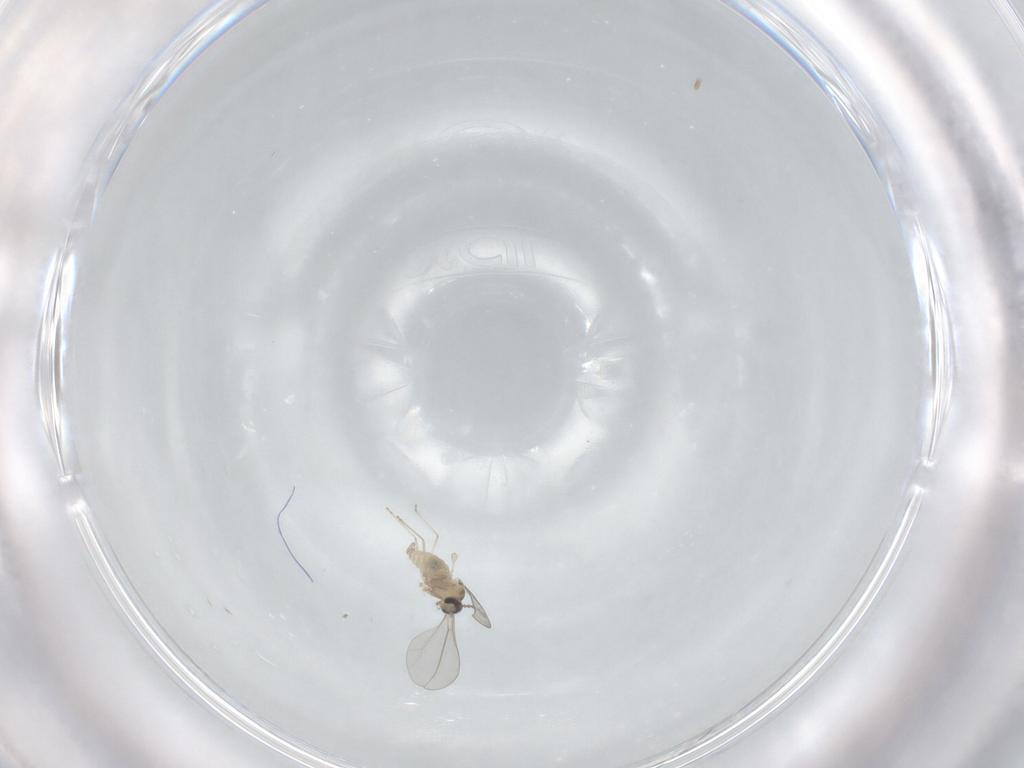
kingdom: Animalia
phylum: Arthropoda
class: Insecta
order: Diptera
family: Cecidomyiidae
